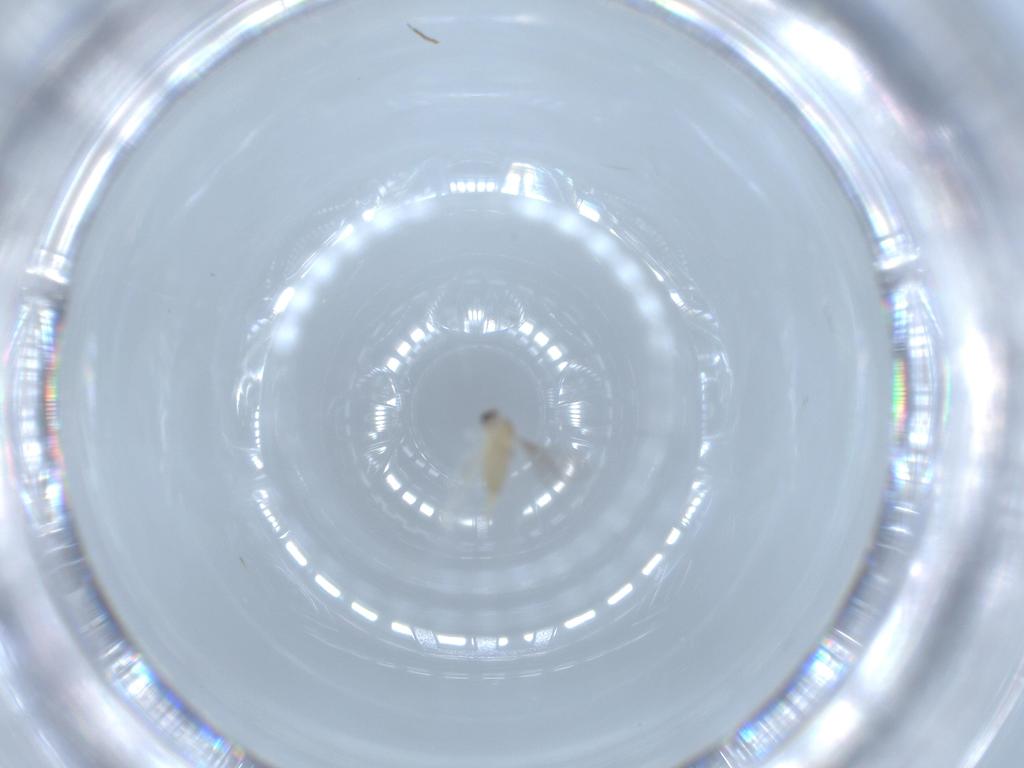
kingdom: Animalia
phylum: Arthropoda
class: Insecta
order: Diptera
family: Cecidomyiidae
